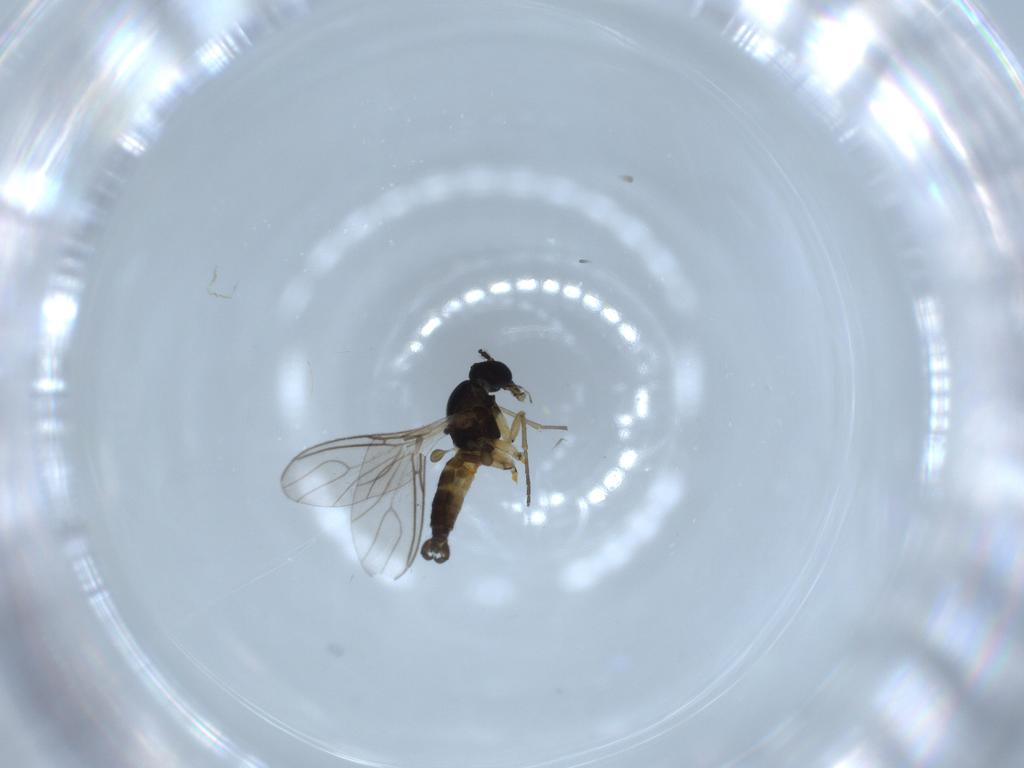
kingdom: Animalia
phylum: Arthropoda
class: Insecta
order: Diptera
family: Sciaridae
